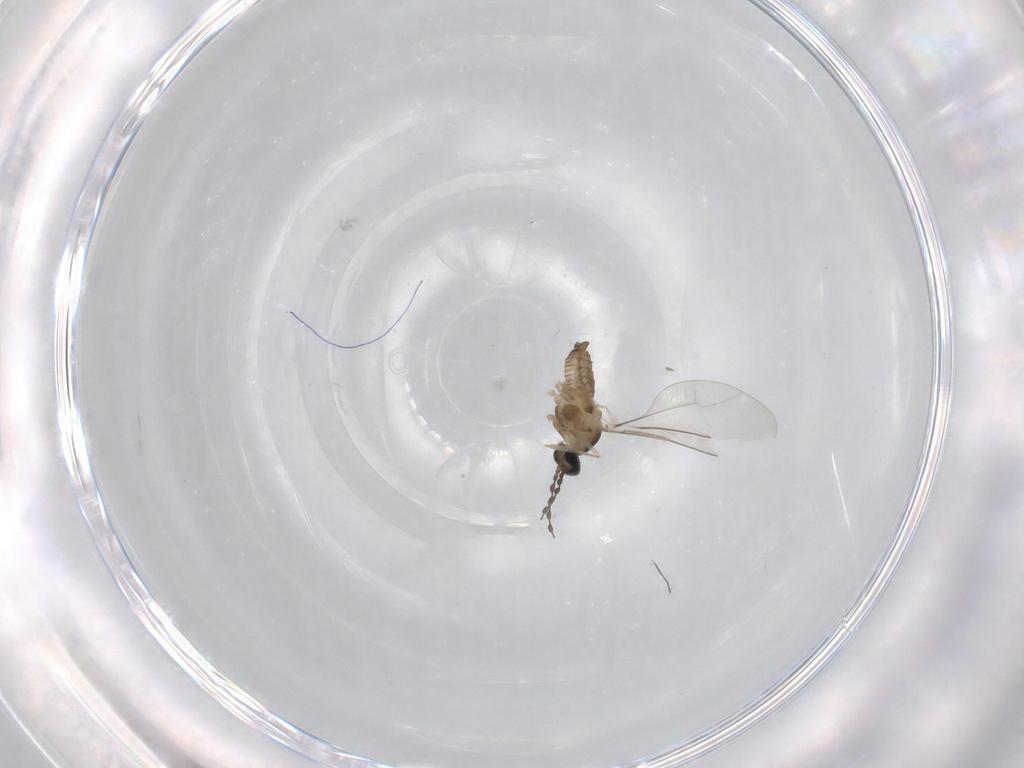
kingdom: Animalia
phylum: Arthropoda
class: Insecta
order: Diptera
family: Cecidomyiidae
